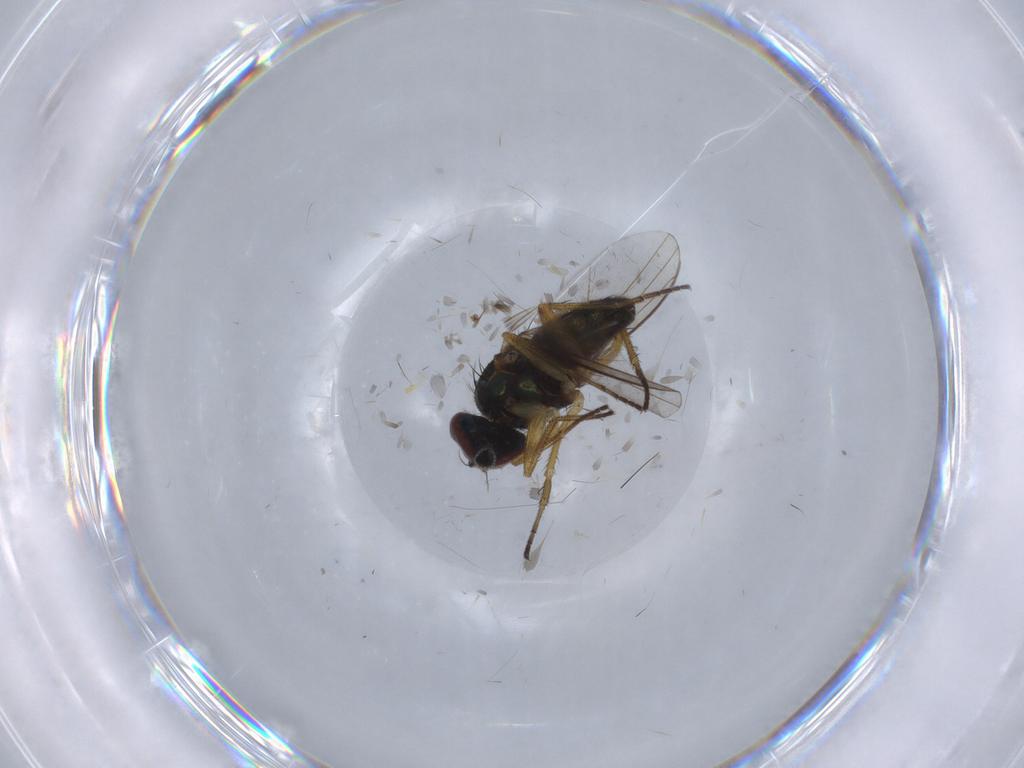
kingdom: Animalia
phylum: Arthropoda
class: Insecta
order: Diptera
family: Dolichopodidae
